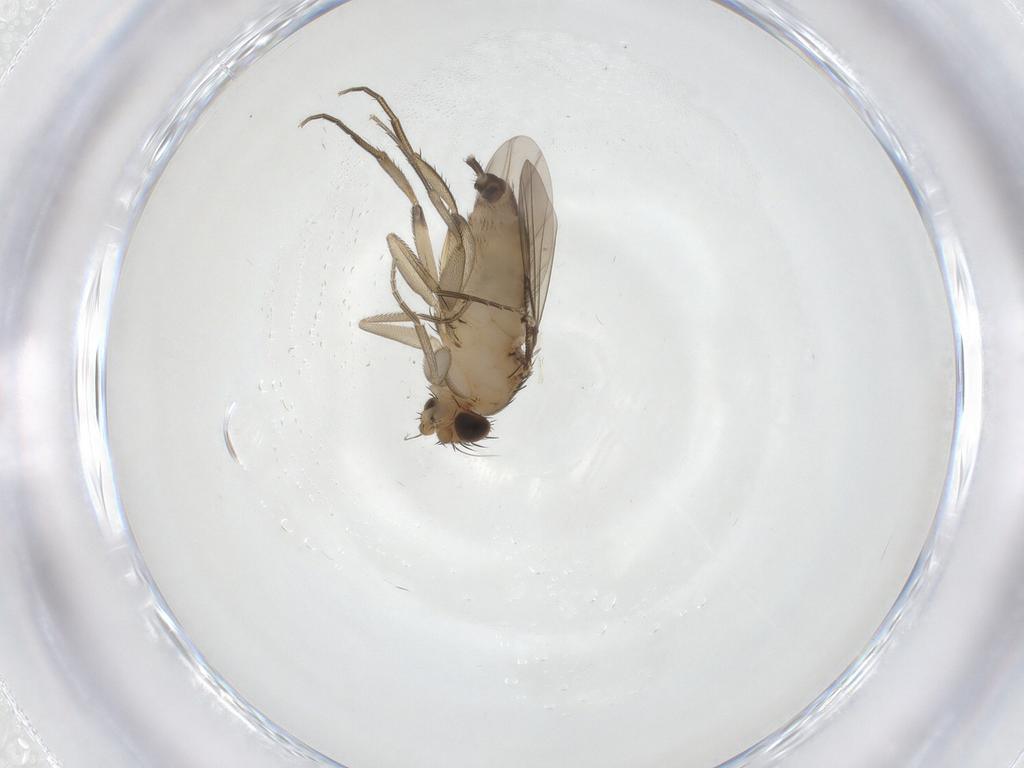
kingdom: Animalia
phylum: Arthropoda
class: Insecta
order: Diptera
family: Phoridae
